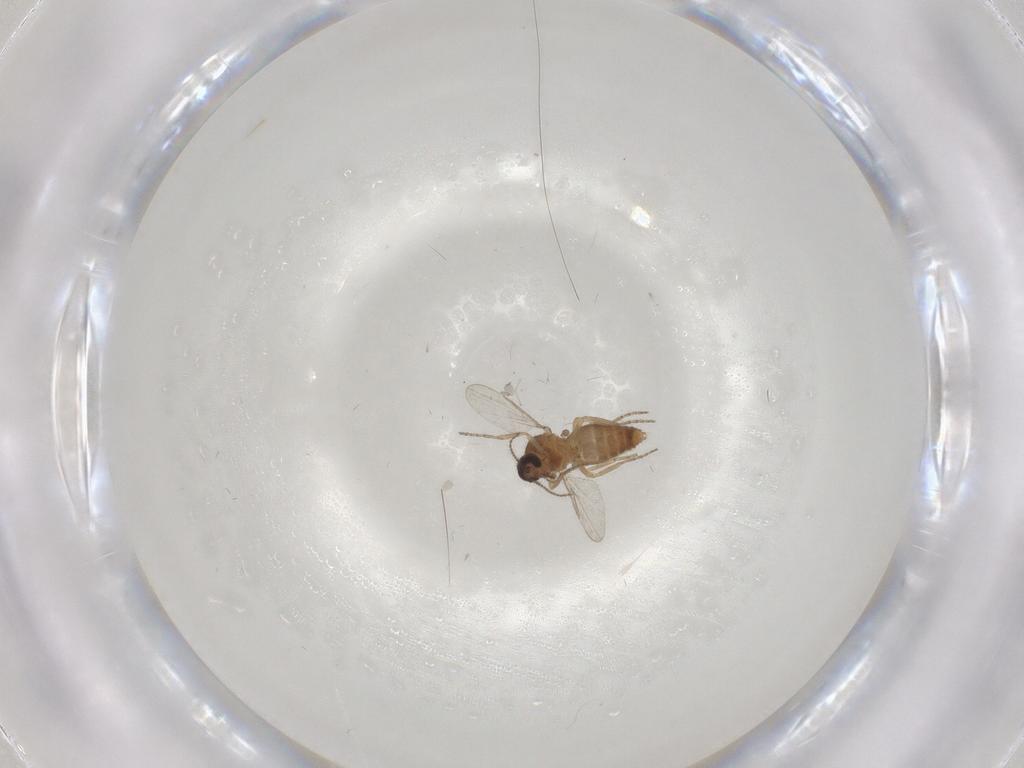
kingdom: Animalia
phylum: Arthropoda
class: Insecta
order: Diptera
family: Ceratopogonidae
